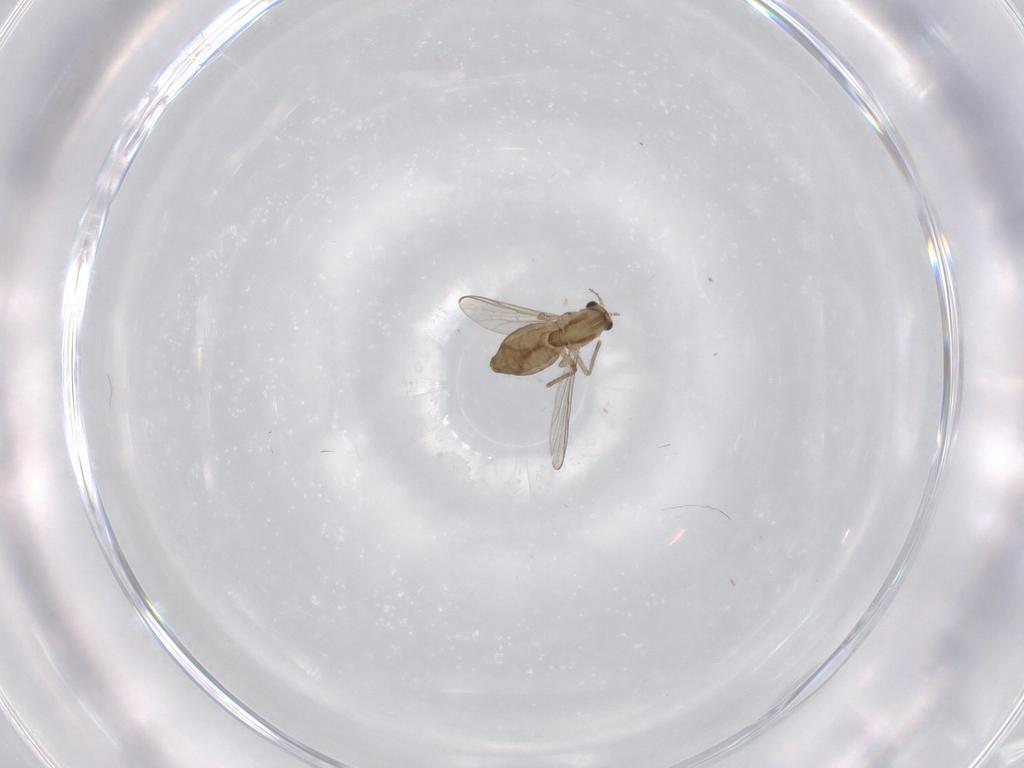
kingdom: Animalia
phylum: Arthropoda
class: Insecta
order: Diptera
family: Chironomidae
